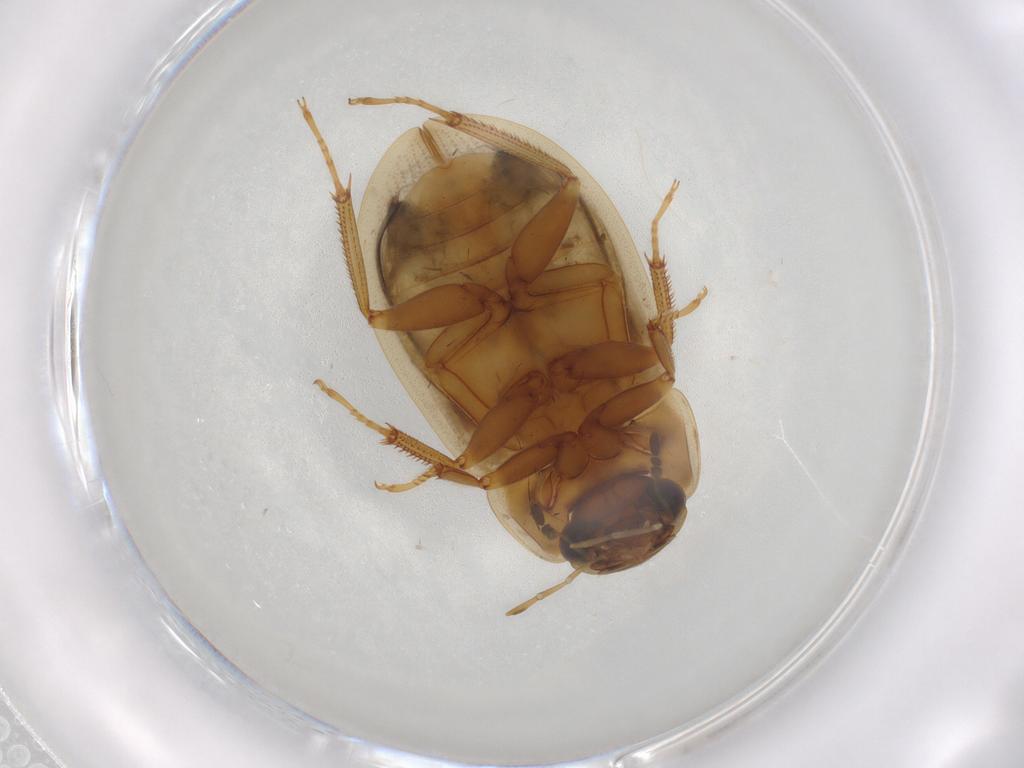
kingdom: Animalia
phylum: Arthropoda
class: Insecta
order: Coleoptera
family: Hydrophilidae
